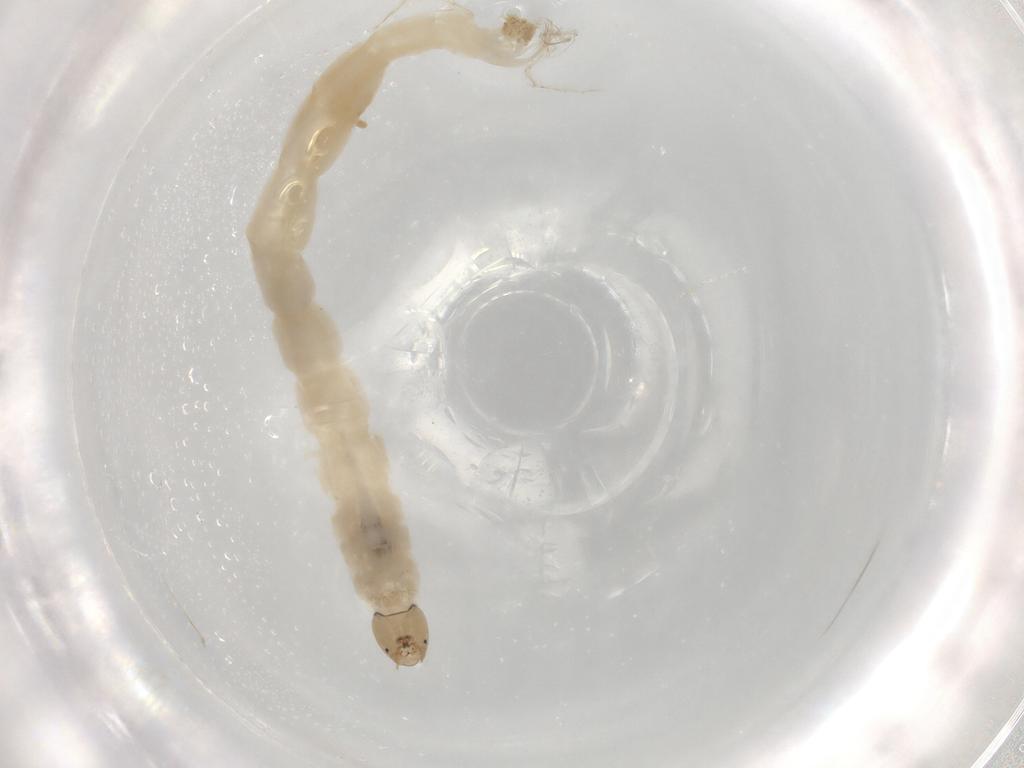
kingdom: Animalia
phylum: Arthropoda
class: Insecta
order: Diptera
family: Chironomidae
